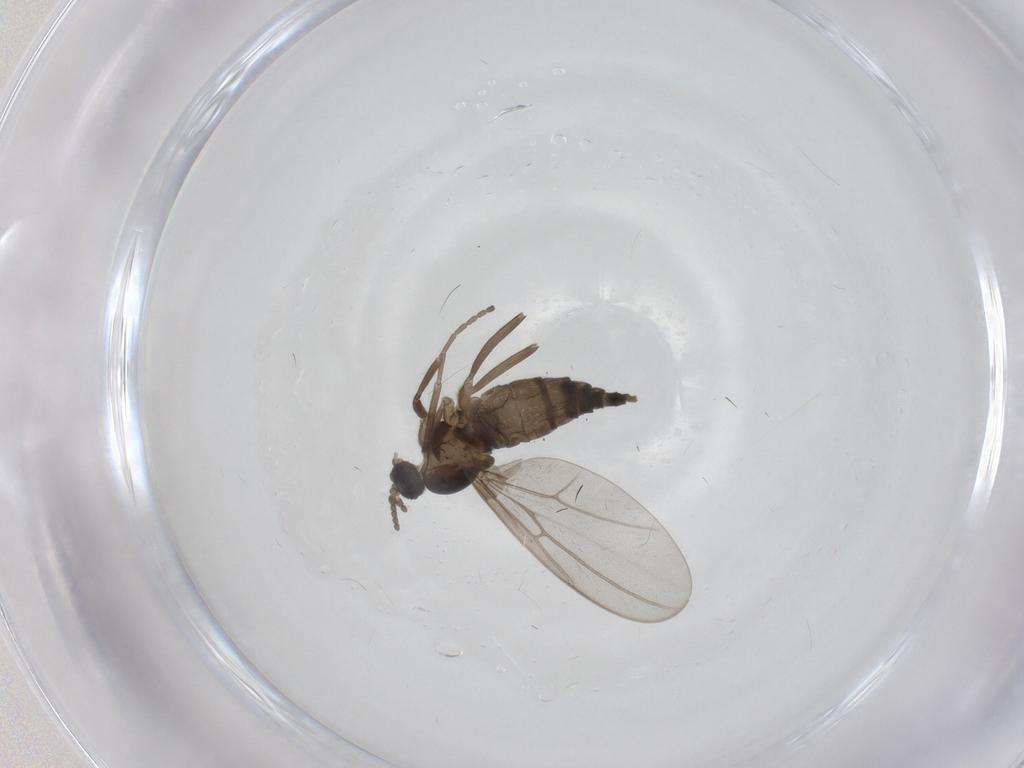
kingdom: Animalia
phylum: Arthropoda
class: Insecta
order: Diptera
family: Cecidomyiidae
